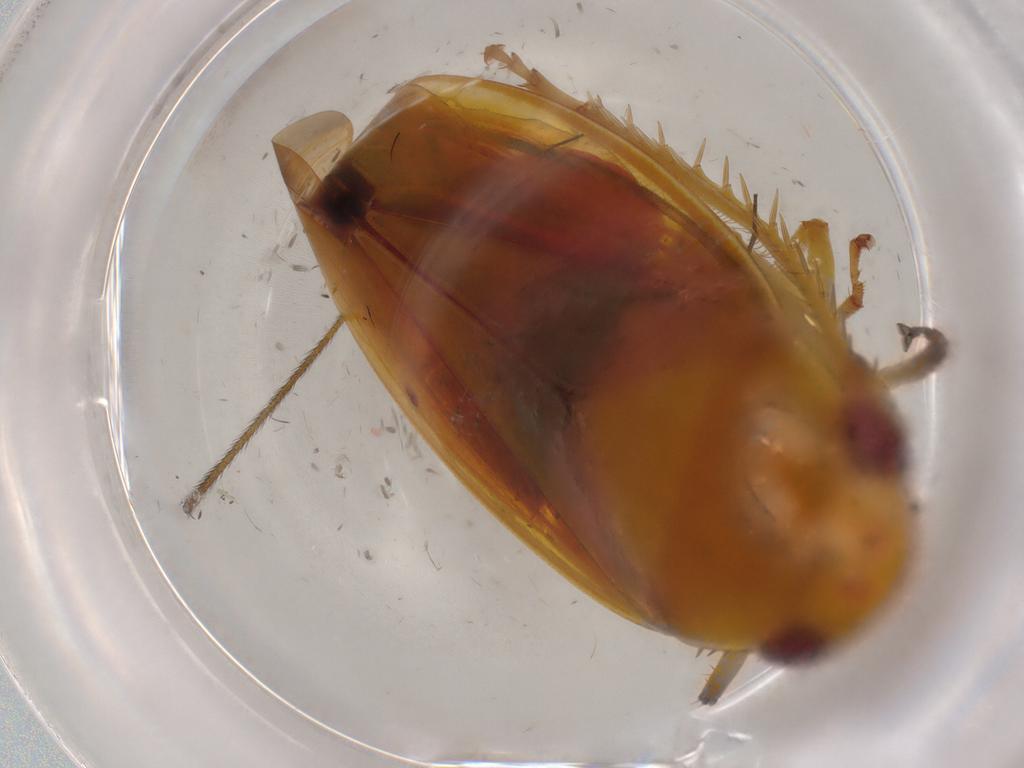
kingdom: Animalia
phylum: Arthropoda
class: Insecta
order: Hemiptera
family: Cicadellidae
